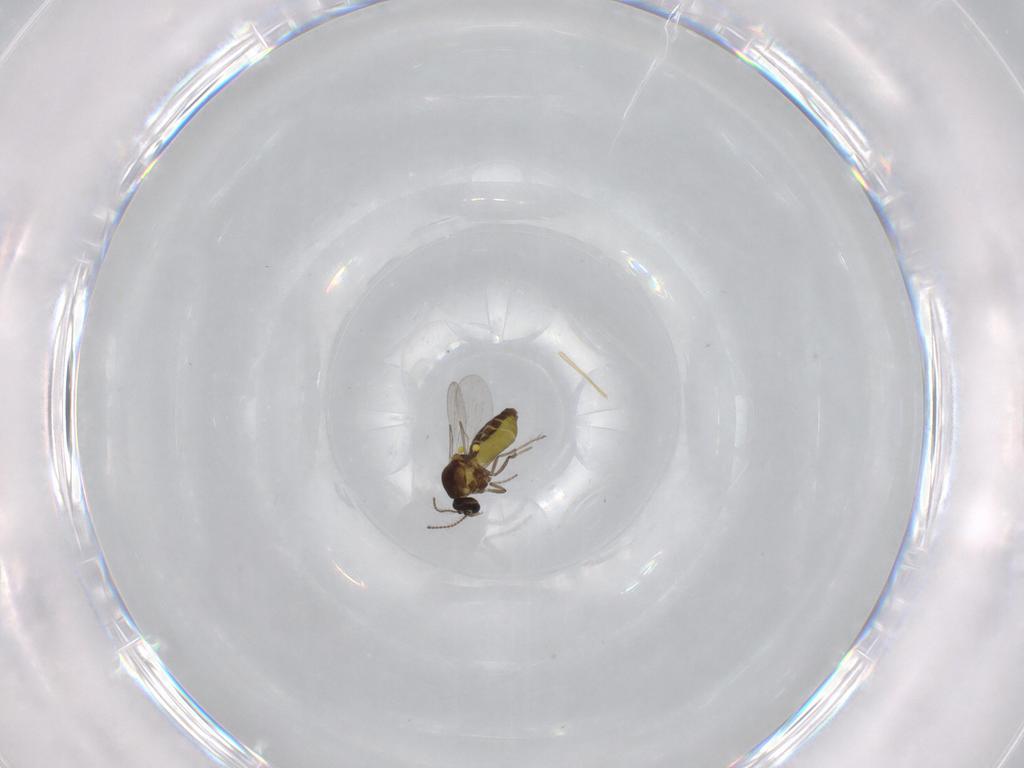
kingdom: Animalia
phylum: Arthropoda
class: Insecta
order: Diptera
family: Ceratopogonidae
